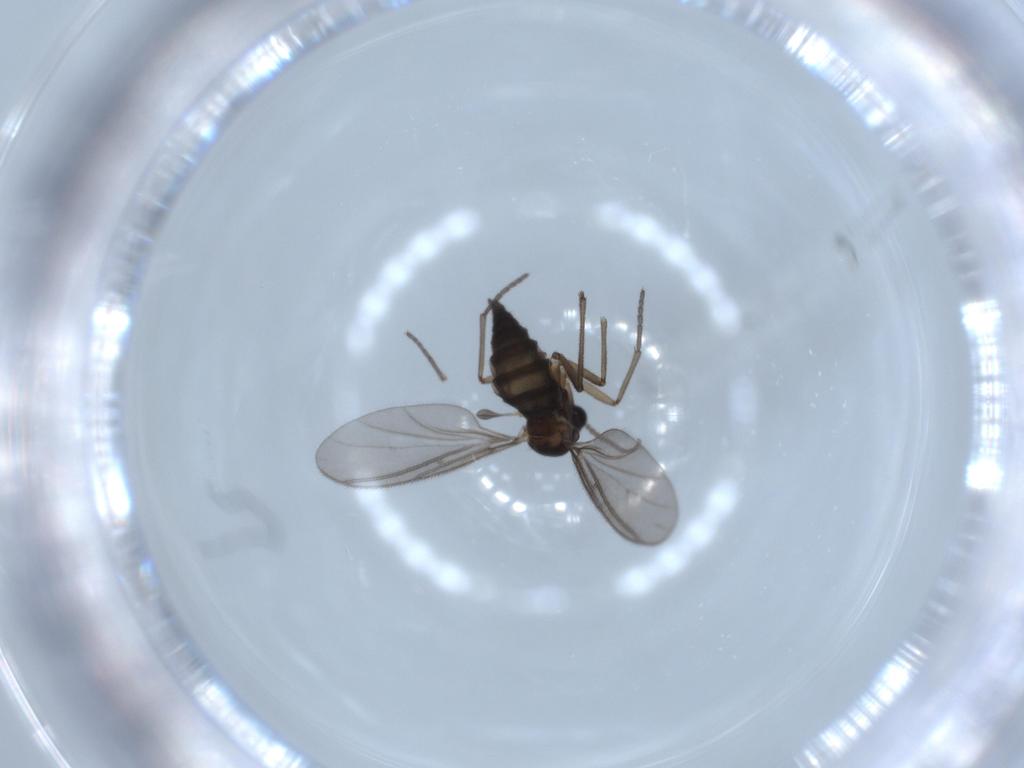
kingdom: Animalia
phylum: Arthropoda
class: Insecta
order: Diptera
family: Sciaridae
